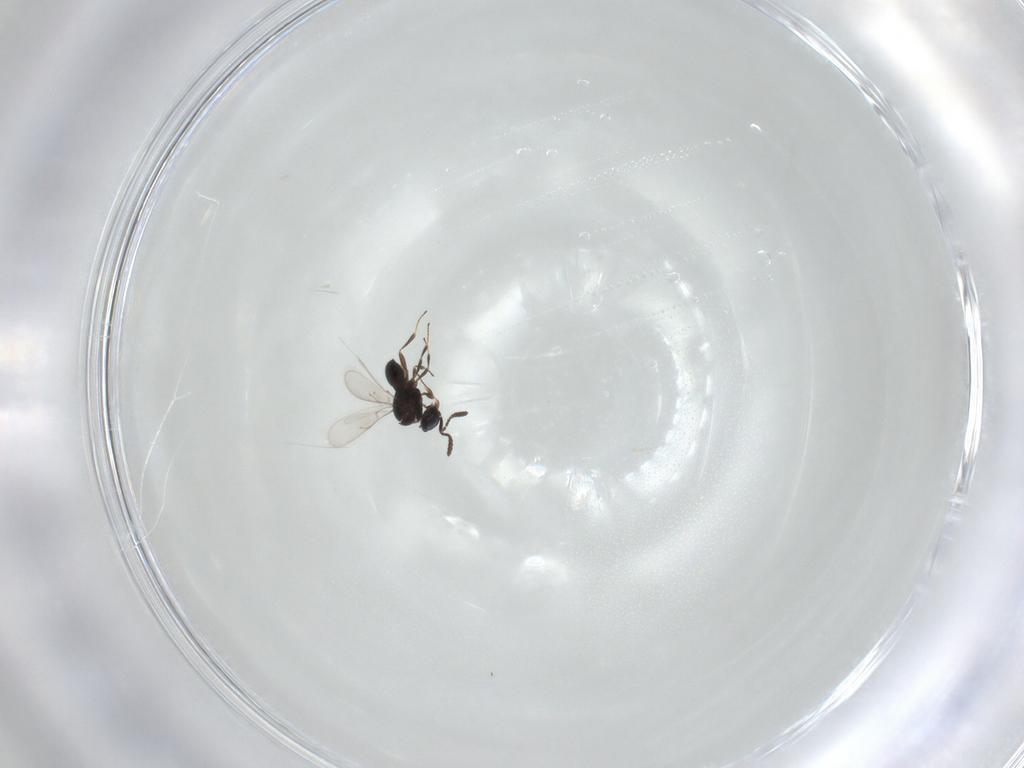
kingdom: Animalia
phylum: Arthropoda
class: Insecta
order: Hymenoptera
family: Scelionidae
